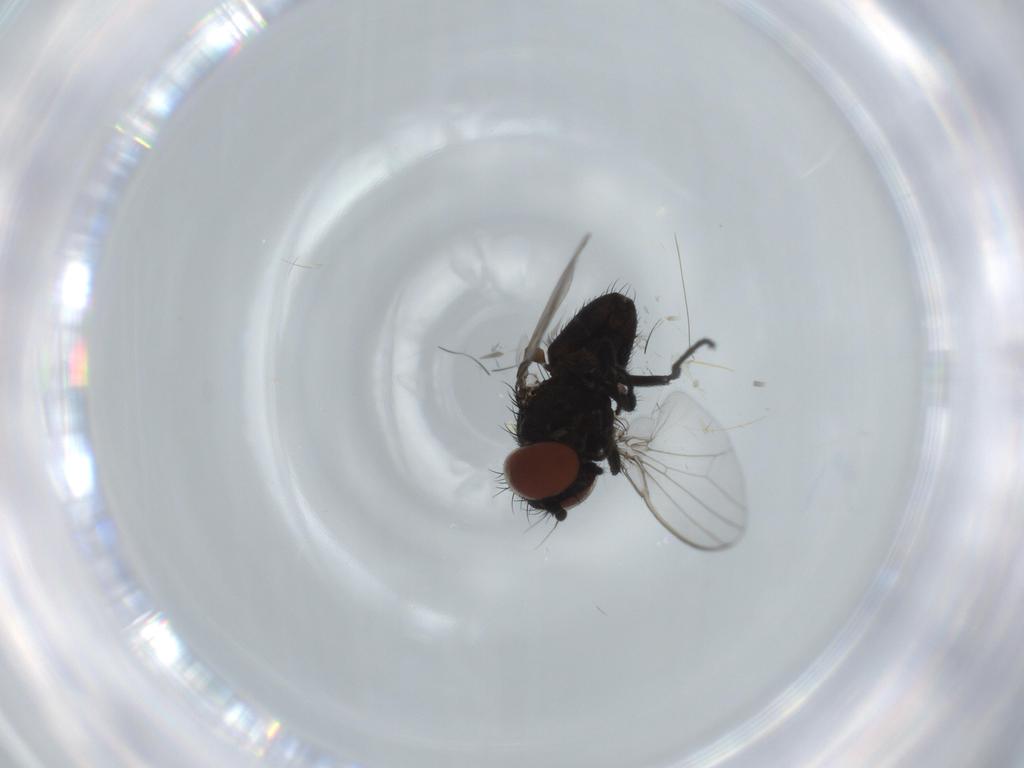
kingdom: Animalia
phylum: Arthropoda
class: Insecta
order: Diptera
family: Milichiidae
